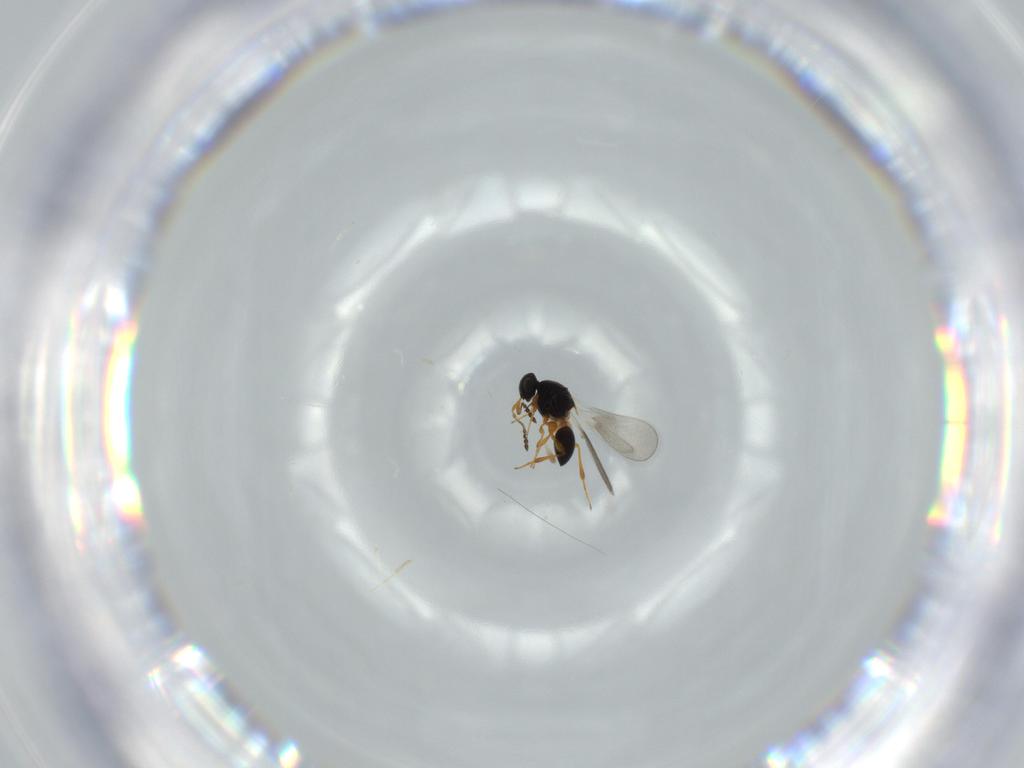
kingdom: Animalia
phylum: Arthropoda
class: Insecta
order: Hymenoptera
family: Platygastridae
